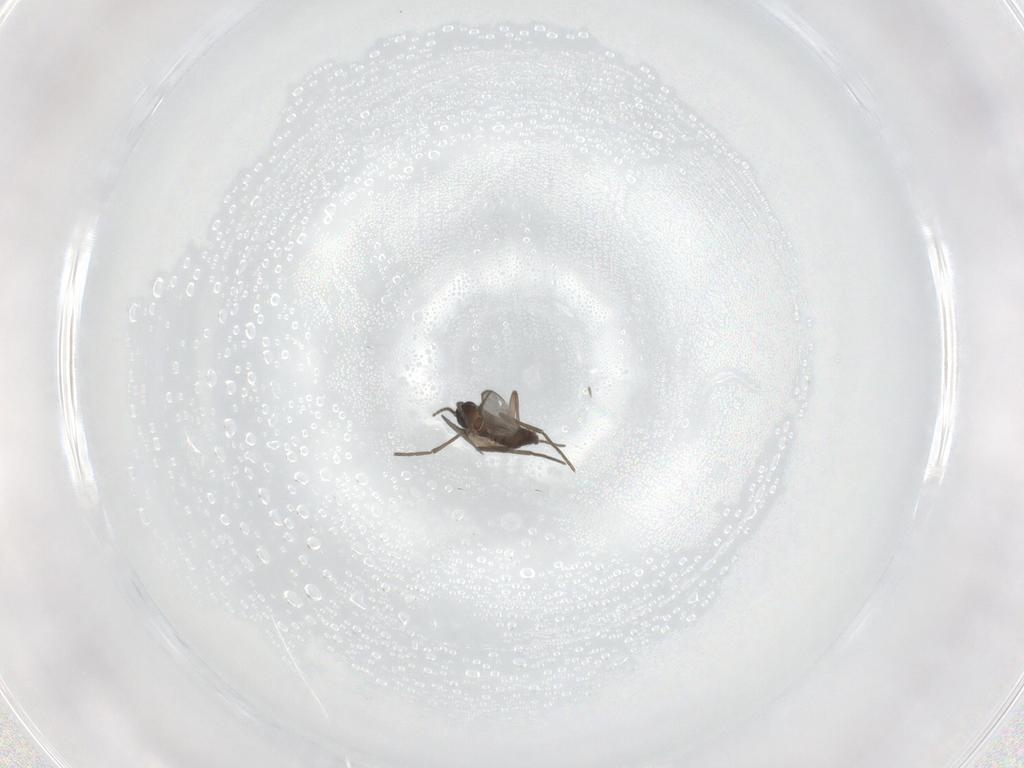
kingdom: Animalia
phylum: Arthropoda
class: Insecta
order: Diptera
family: Sciaridae
